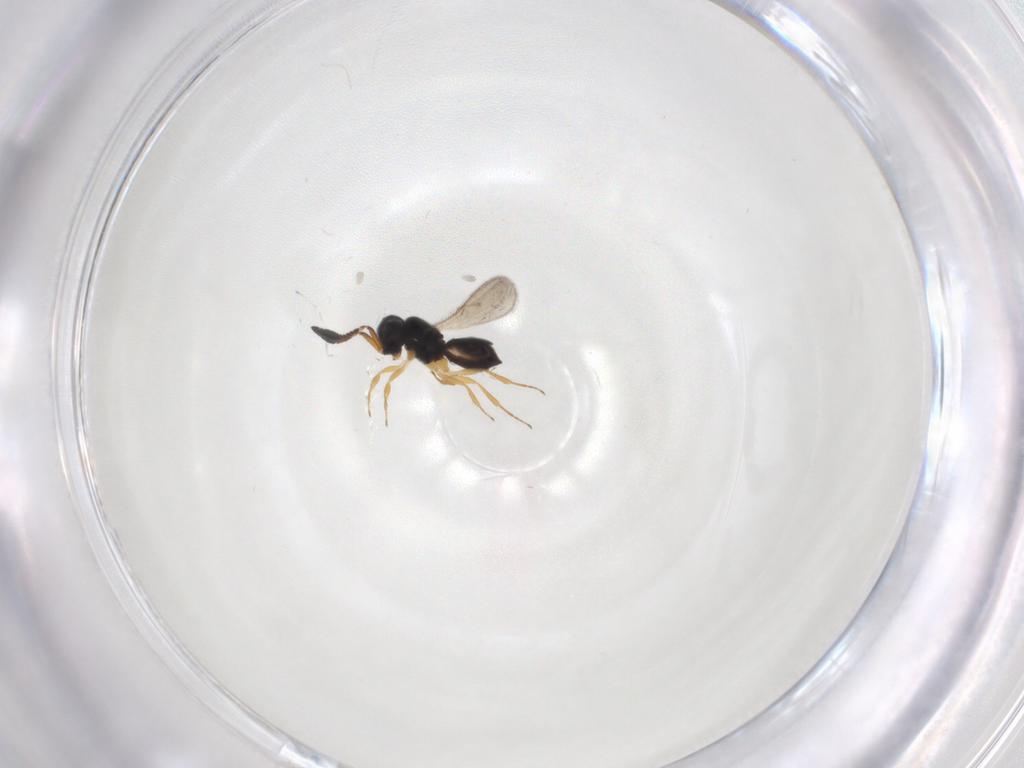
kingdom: Animalia
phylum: Arthropoda
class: Insecta
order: Hymenoptera
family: Scelionidae
